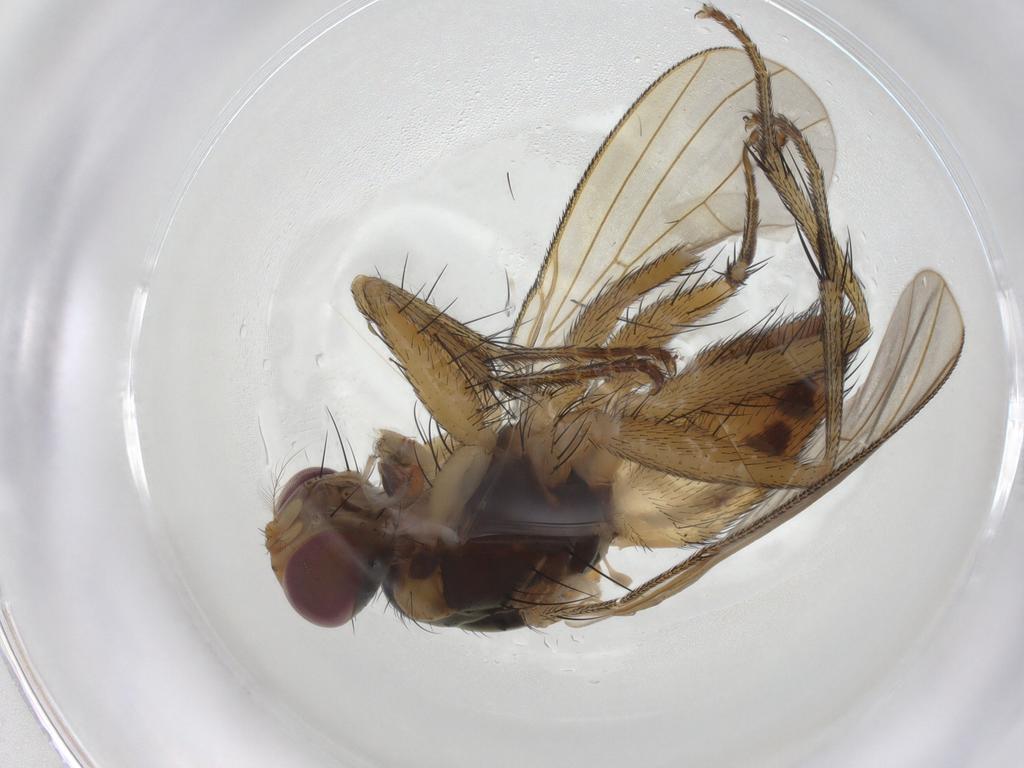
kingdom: Animalia
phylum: Arthropoda
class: Insecta
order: Diptera
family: Muscidae
